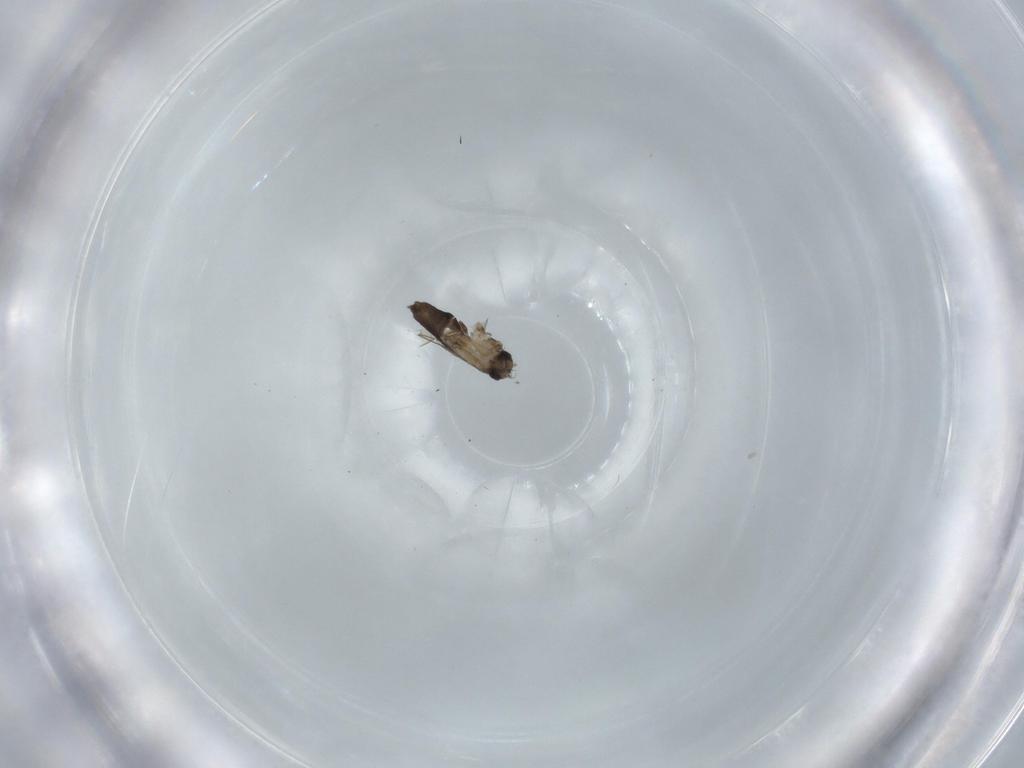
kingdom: Animalia
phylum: Arthropoda
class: Insecta
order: Diptera
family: Phoridae
